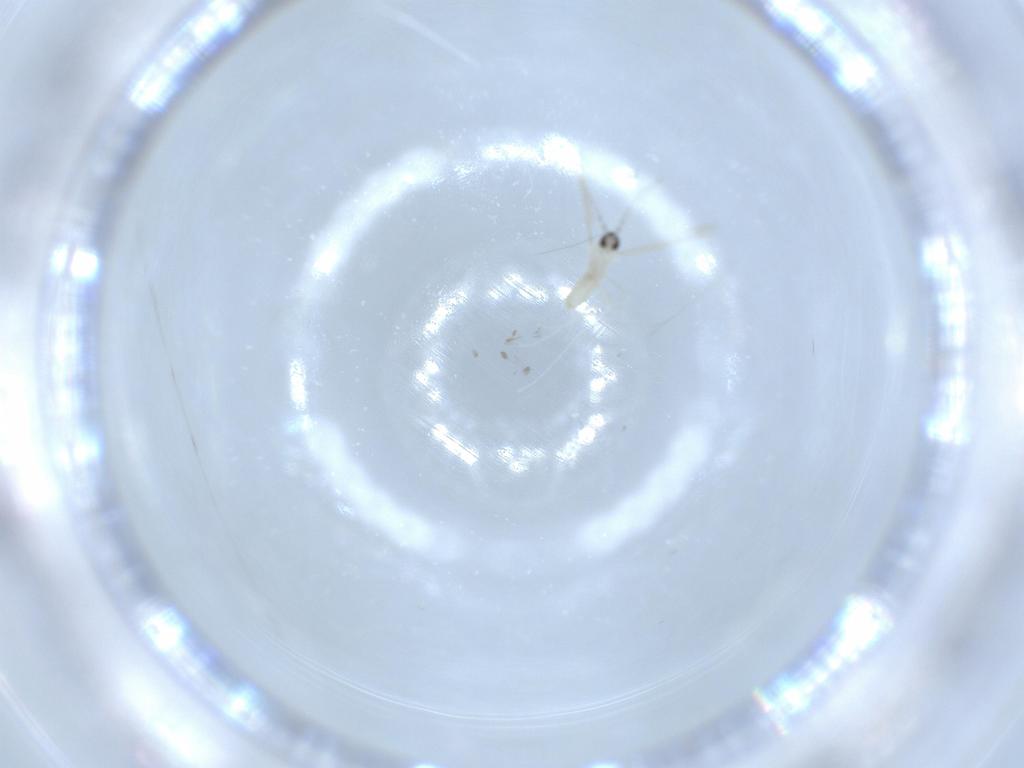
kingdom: Animalia
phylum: Arthropoda
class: Insecta
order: Diptera
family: Cecidomyiidae
